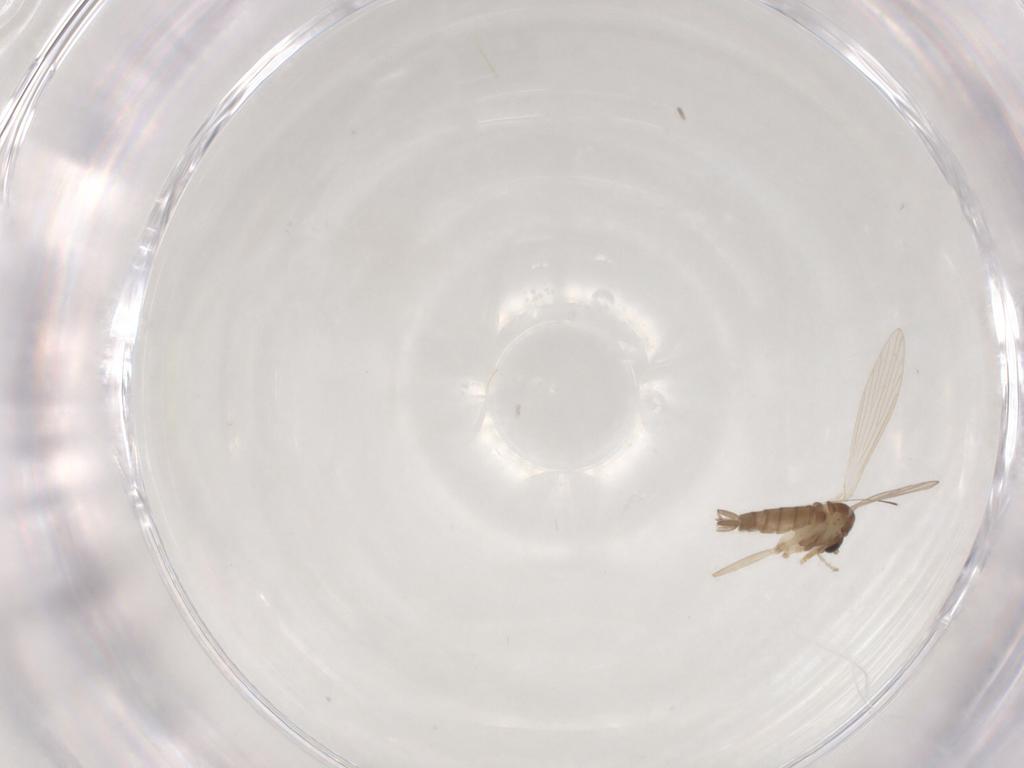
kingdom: Animalia
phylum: Arthropoda
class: Insecta
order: Diptera
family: Psychodidae
